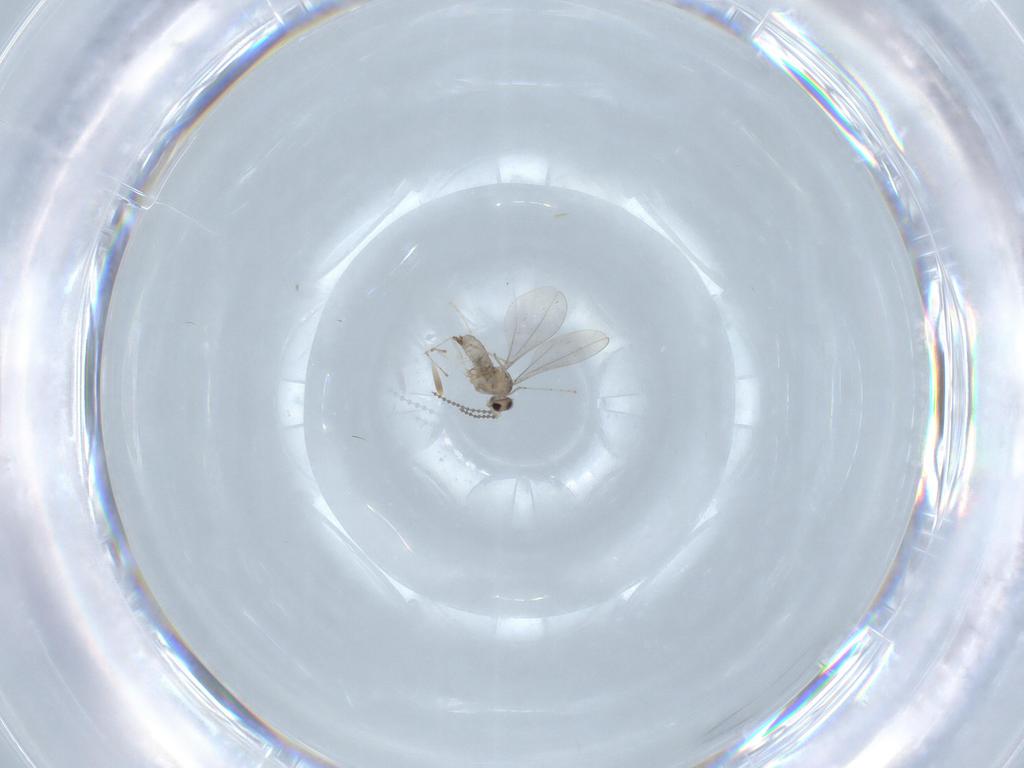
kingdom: Animalia
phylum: Arthropoda
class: Insecta
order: Diptera
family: Cecidomyiidae
